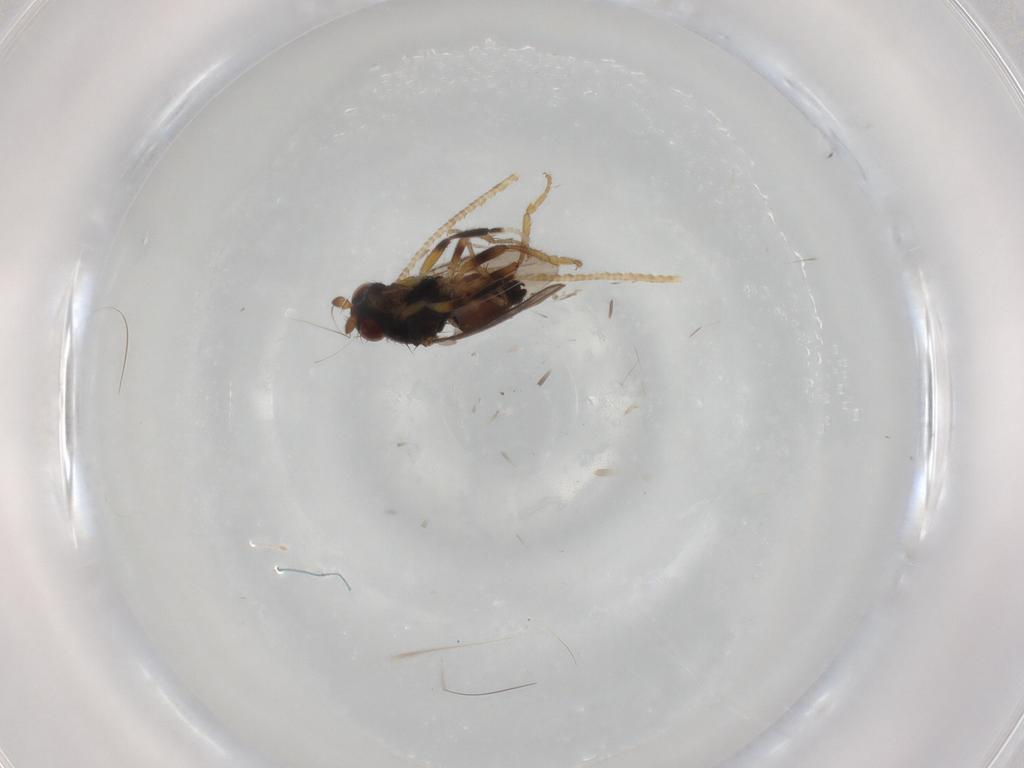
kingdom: Animalia
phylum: Arthropoda
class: Insecta
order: Diptera
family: Sphaeroceridae
